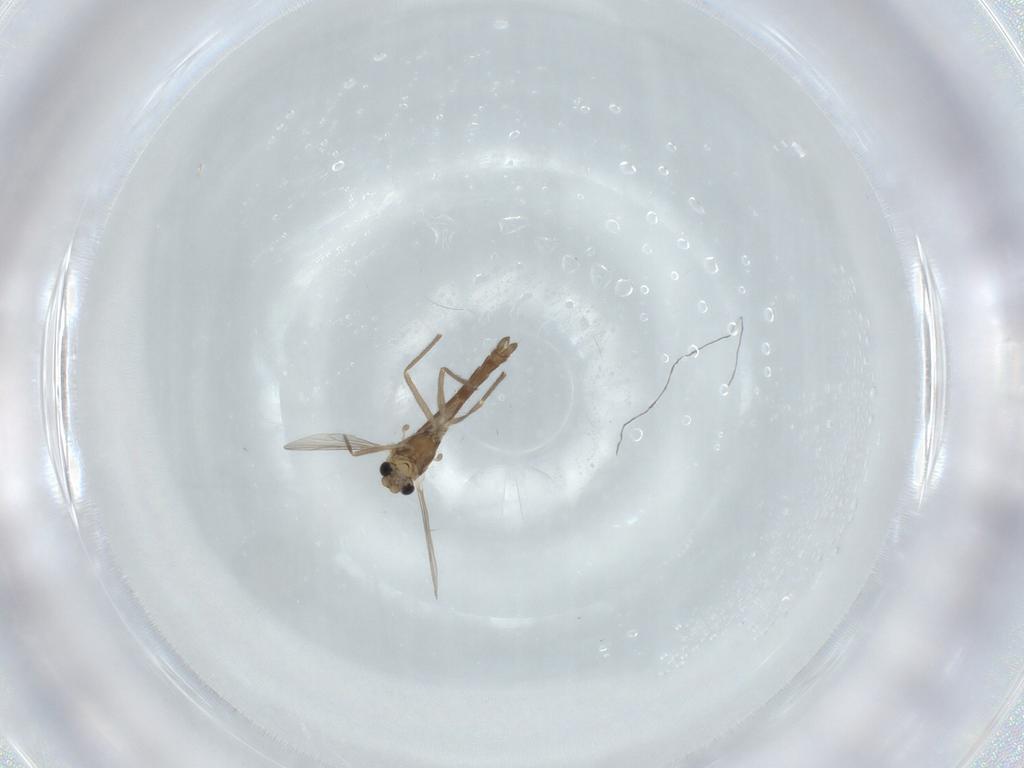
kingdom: Animalia
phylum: Arthropoda
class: Insecta
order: Diptera
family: Chironomidae
